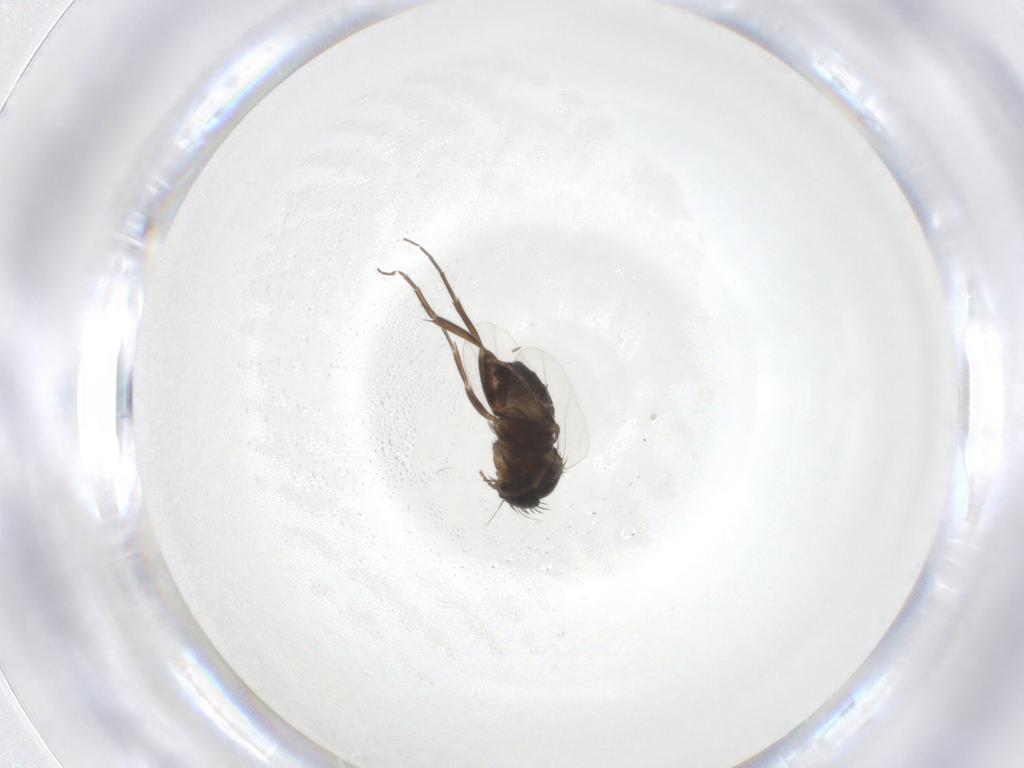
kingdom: Animalia
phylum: Arthropoda
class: Insecta
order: Diptera
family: Phoridae
